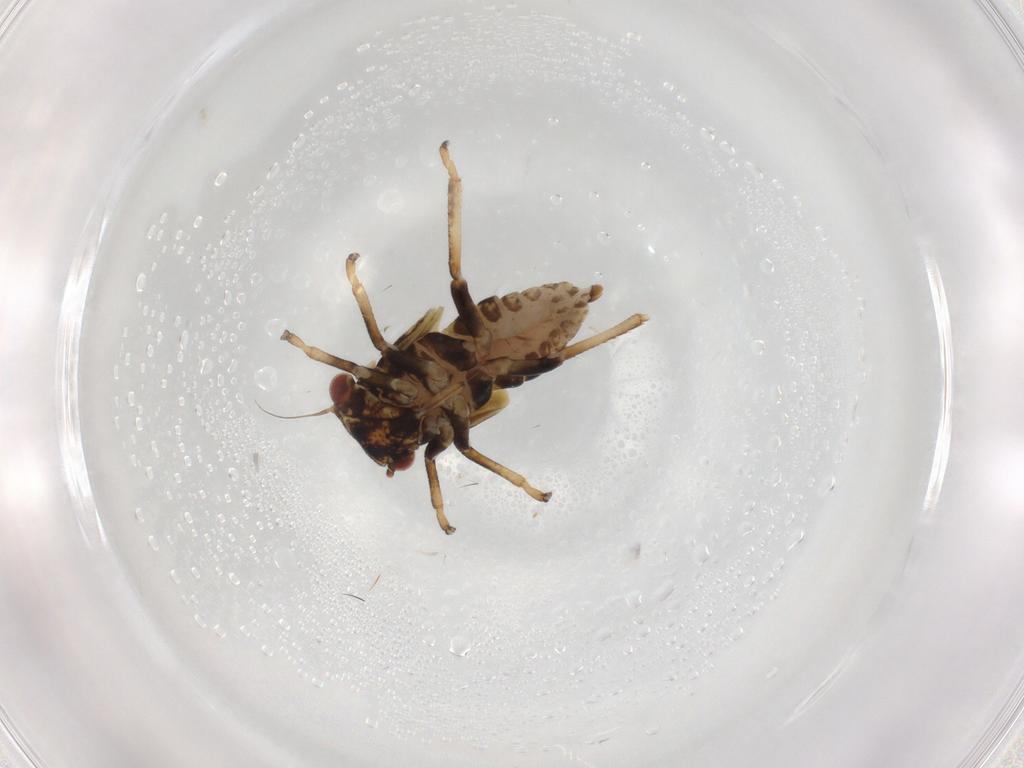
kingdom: Animalia
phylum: Arthropoda
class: Insecta
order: Hemiptera
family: Cicadellidae
